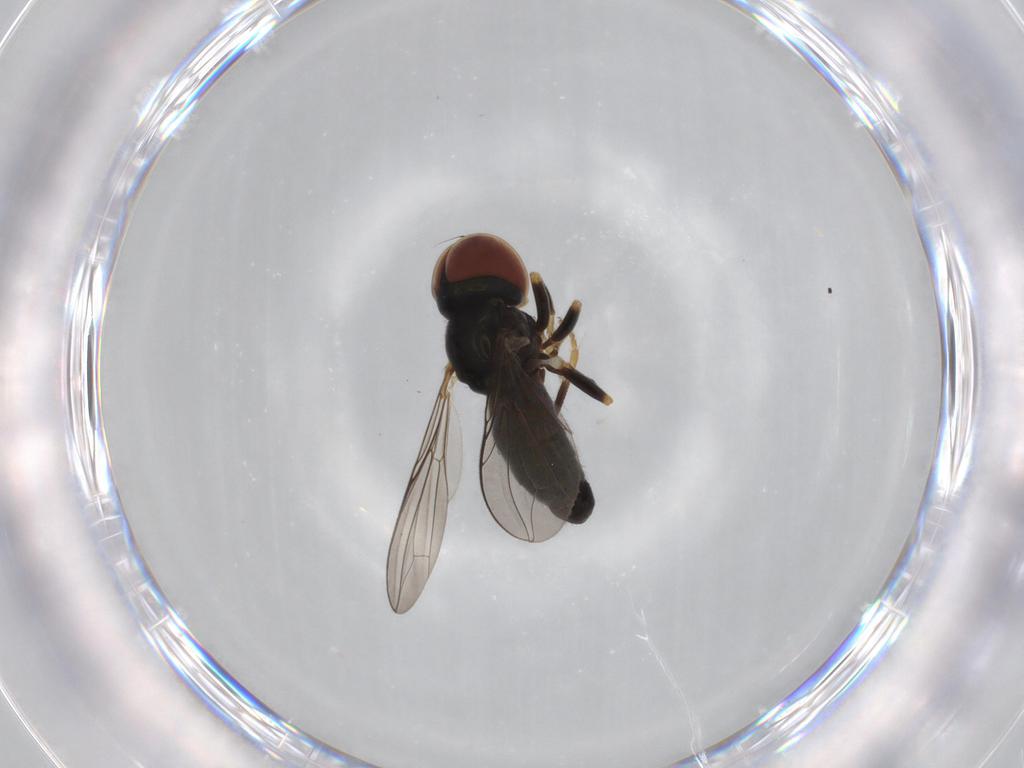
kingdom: Animalia
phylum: Arthropoda
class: Insecta
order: Diptera
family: Pipunculidae
